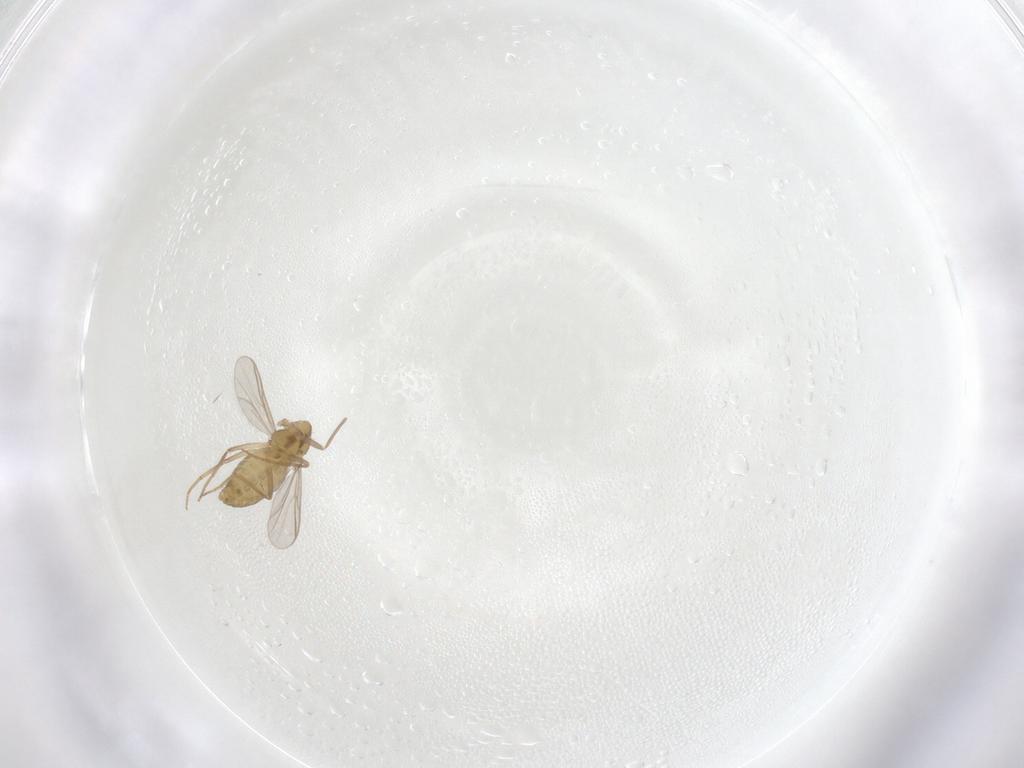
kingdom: Animalia
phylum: Arthropoda
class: Insecta
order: Diptera
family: Chironomidae
